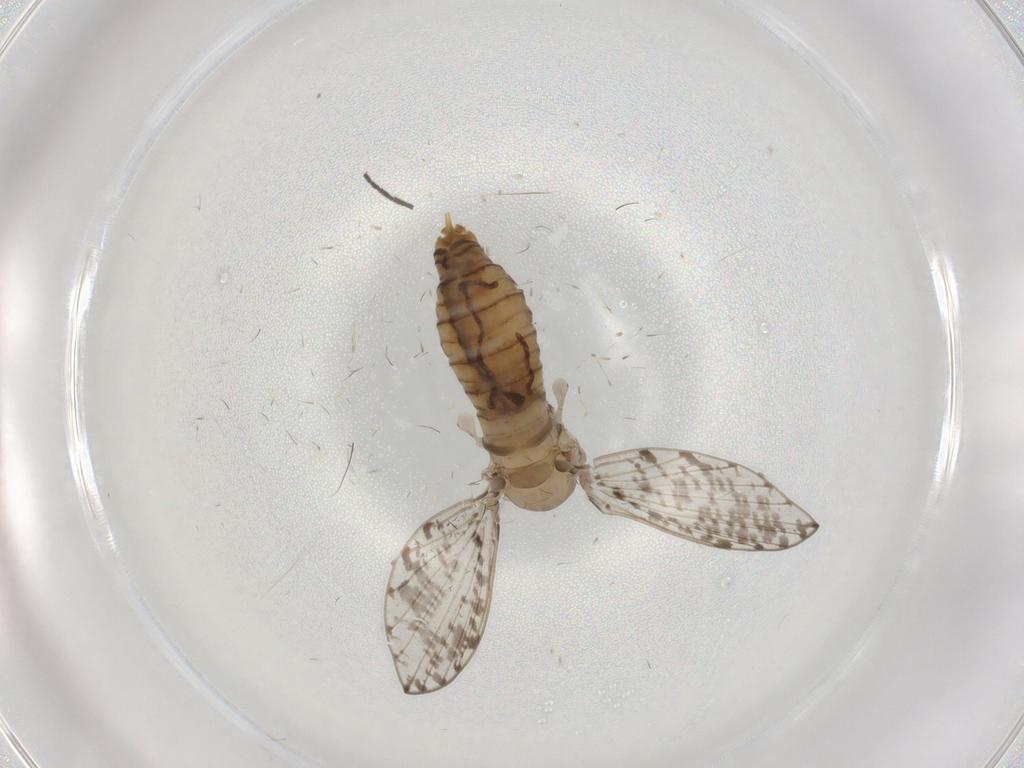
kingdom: Animalia
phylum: Arthropoda
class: Insecta
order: Diptera
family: Psychodidae
